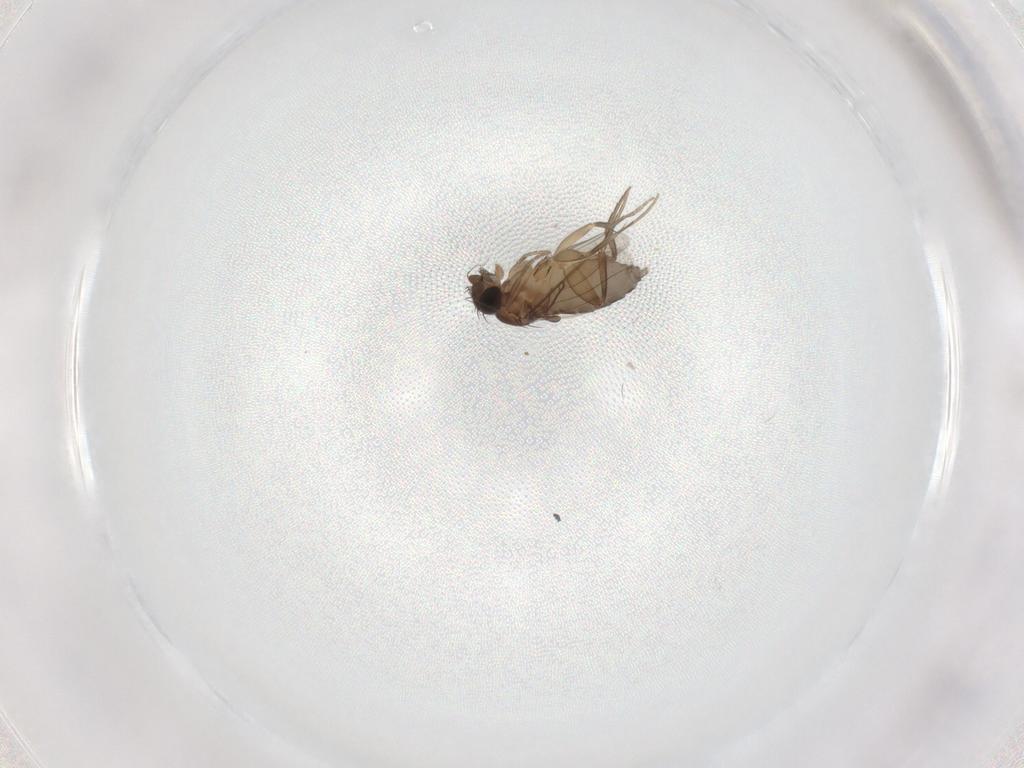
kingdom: Animalia
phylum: Arthropoda
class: Insecta
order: Diptera
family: Phoridae
